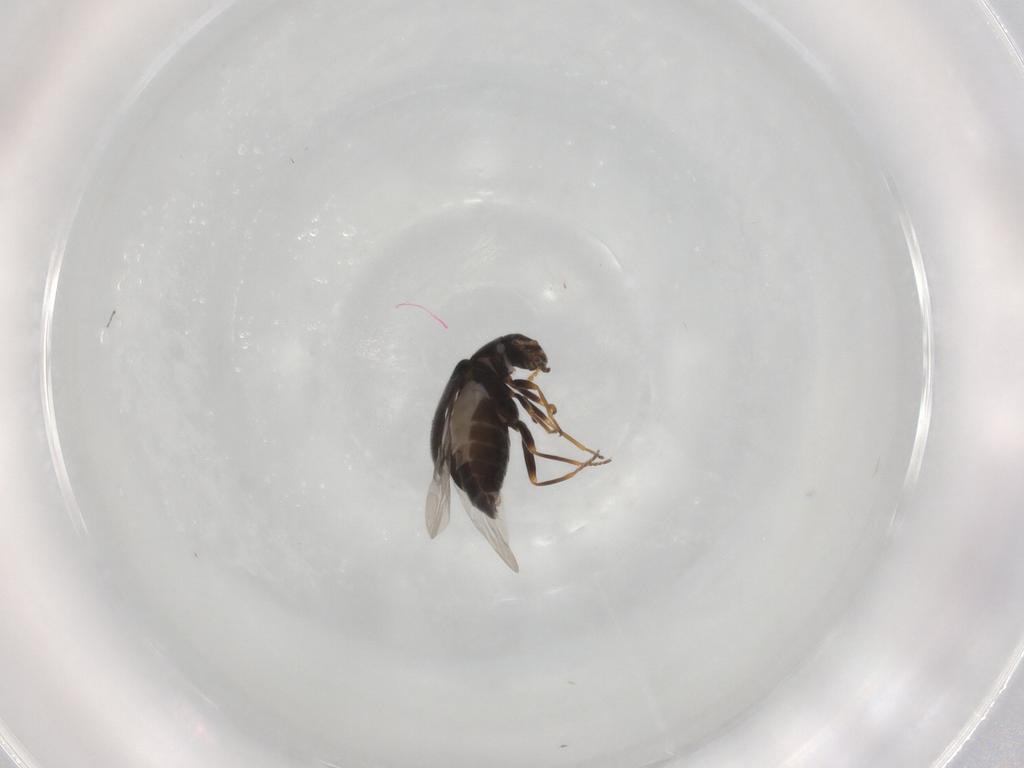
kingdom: Animalia
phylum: Arthropoda
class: Insecta
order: Coleoptera
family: Melyridae
